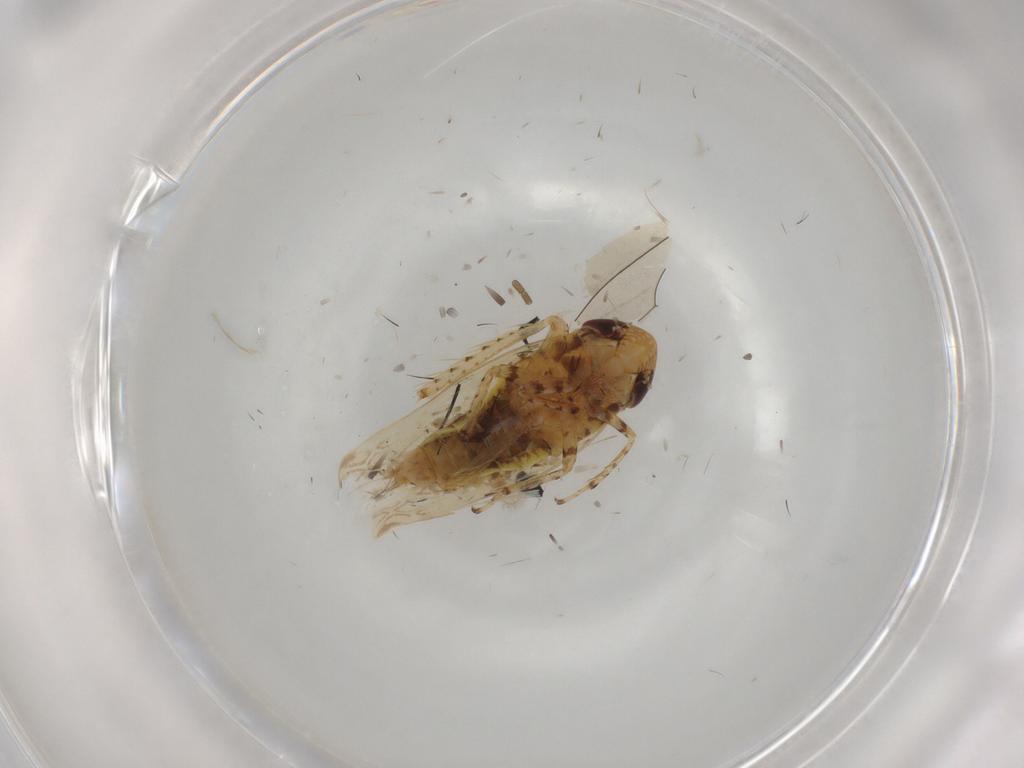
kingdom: Animalia
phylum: Arthropoda
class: Insecta
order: Hemiptera
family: Cicadellidae
